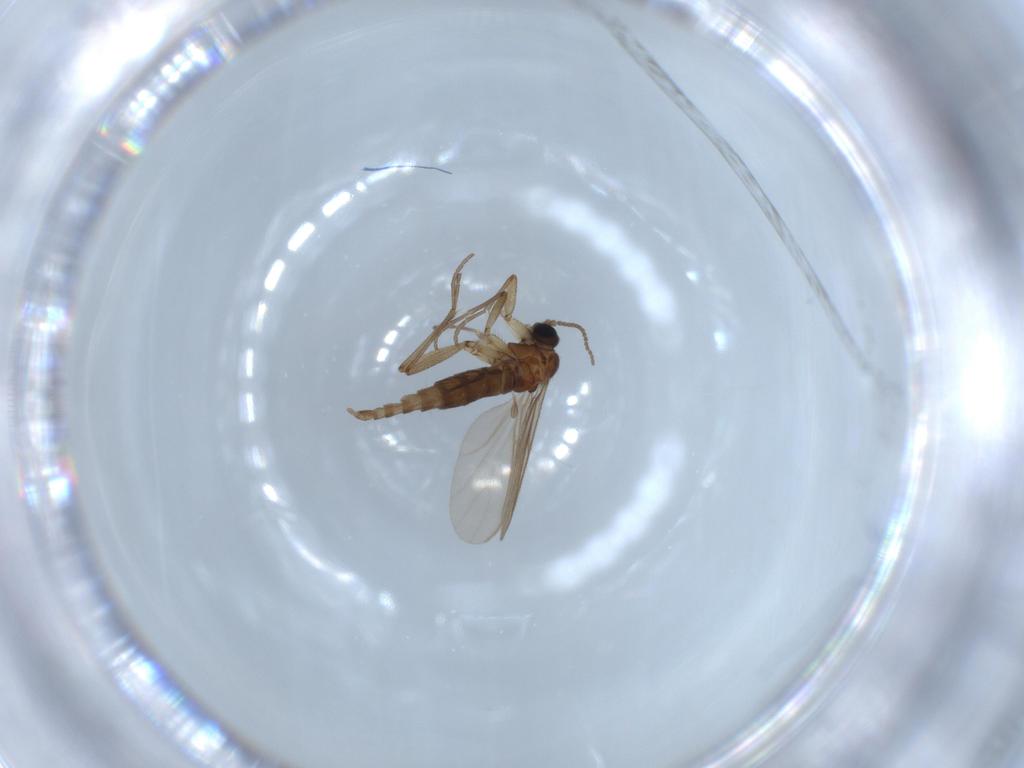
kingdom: Animalia
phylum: Arthropoda
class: Insecta
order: Diptera
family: Sciaridae
